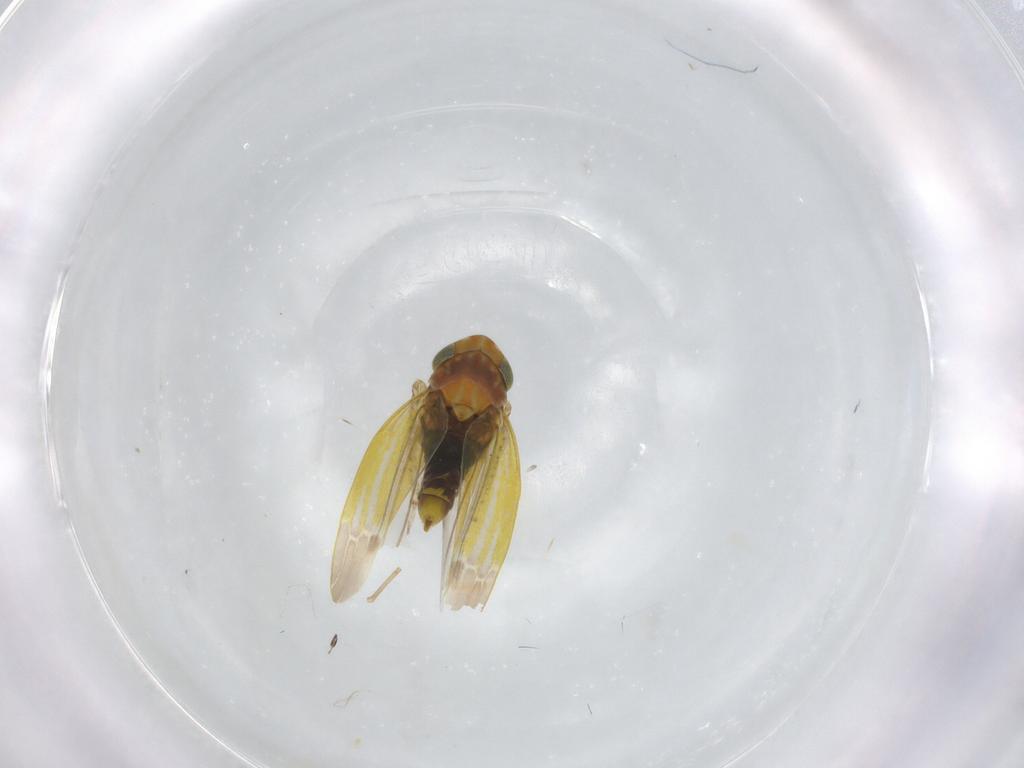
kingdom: Animalia
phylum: Arthropoda
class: Insecta
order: Hemiptera
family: Cicadellidae
